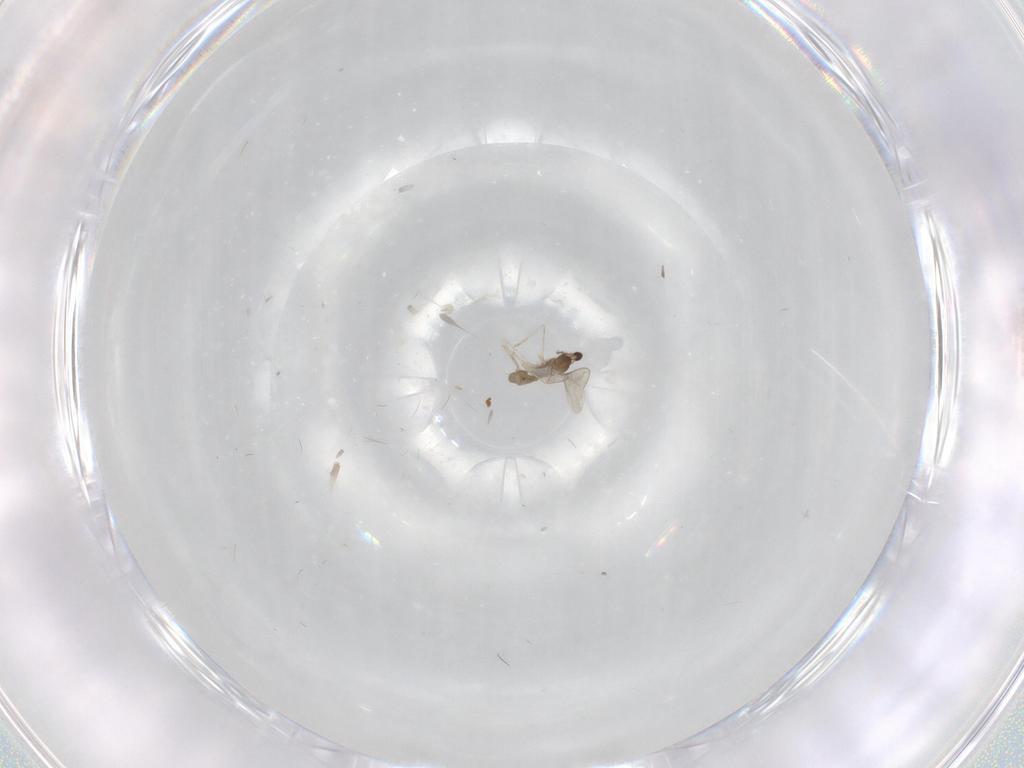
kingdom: Animalia
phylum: Arthropoda
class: Insecta
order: Diptera
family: Cecidomyiidae
